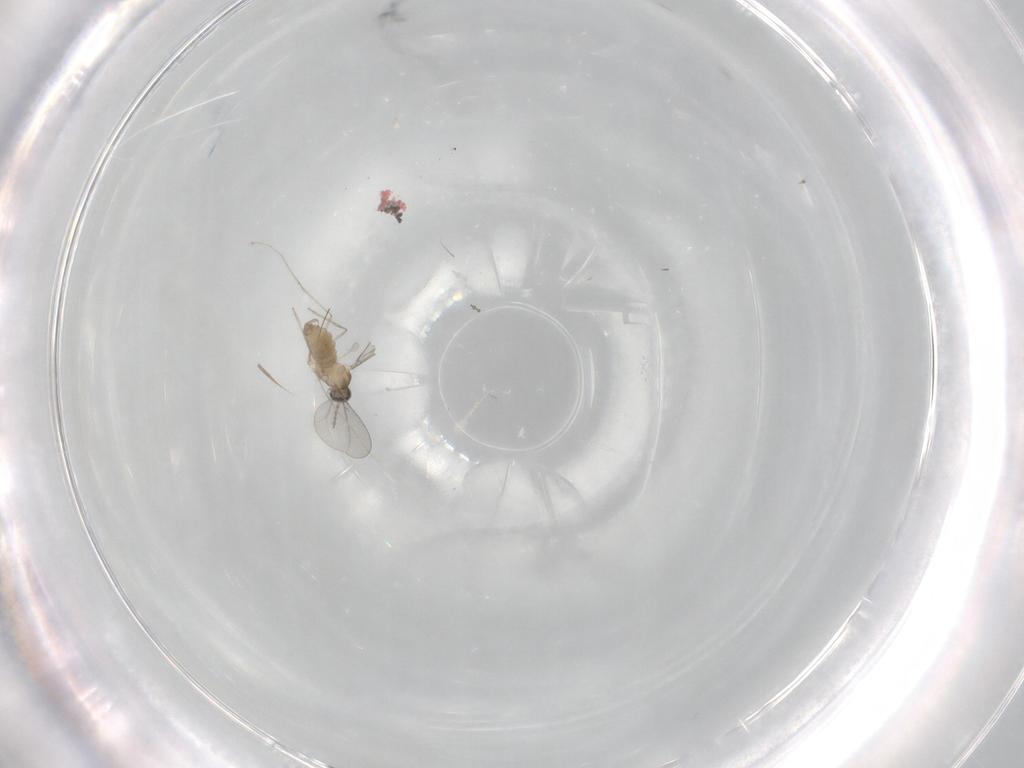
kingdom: Animalia
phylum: Arthropoda
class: Insecta
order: Diptera
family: Cecidomyiidae
